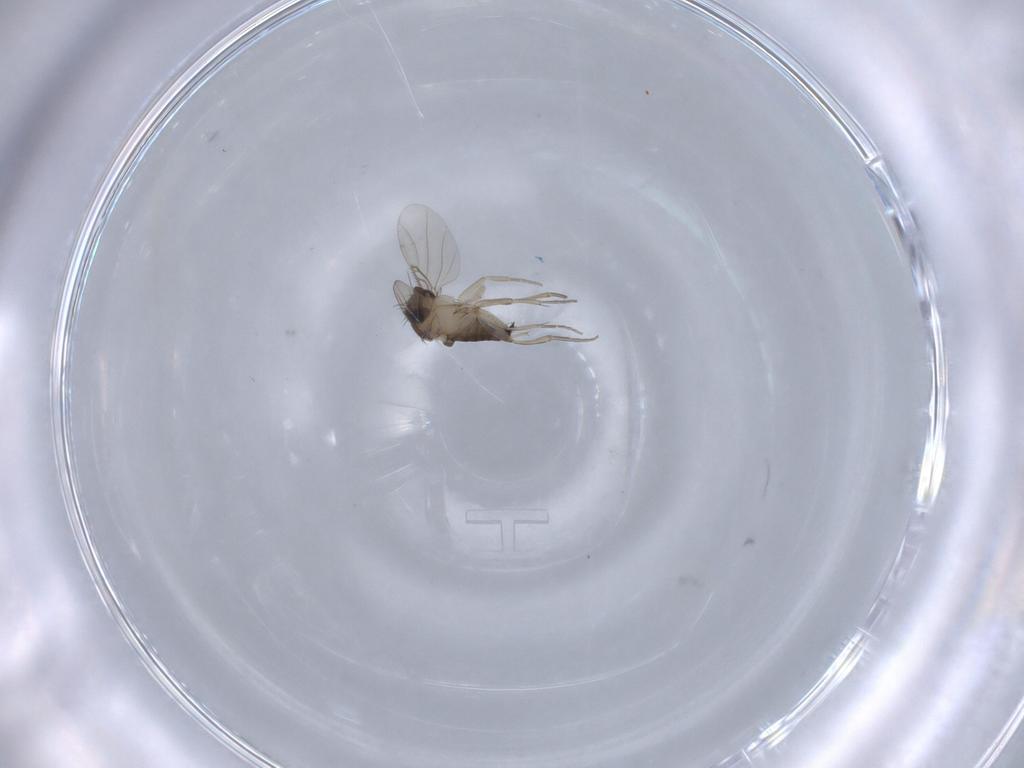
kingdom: Animalia
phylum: Arthropoda
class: Insecta
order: Diptera
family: Phoridae
